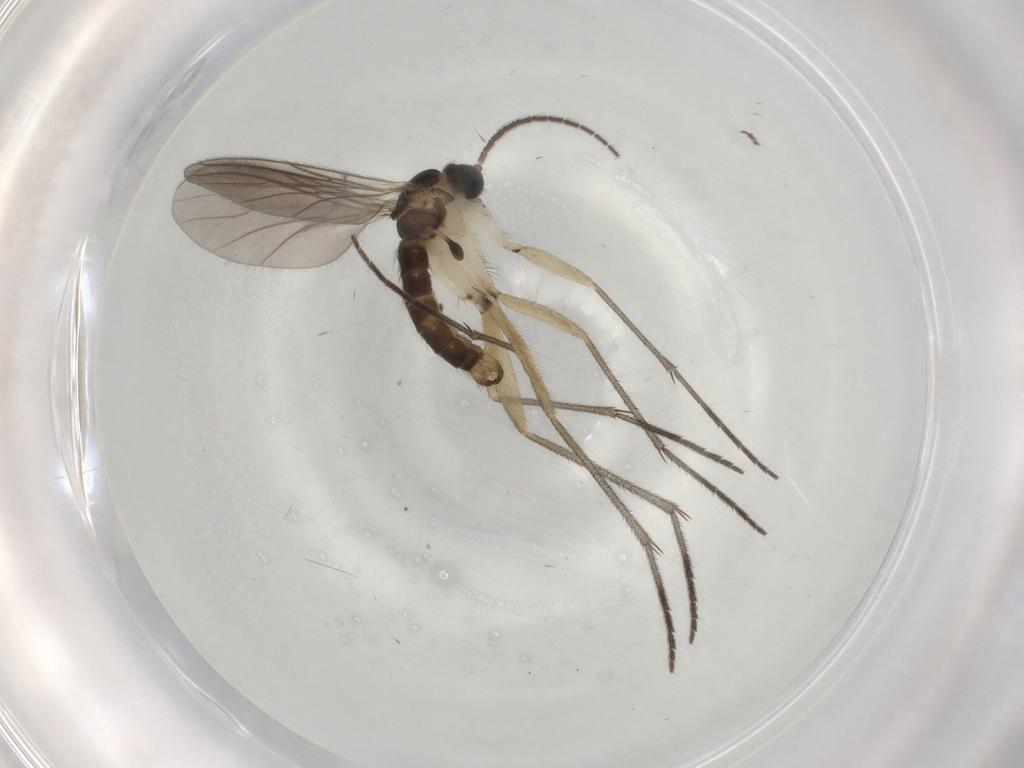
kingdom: Animalia
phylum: Arthropoda
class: Insecta
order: Diptera
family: Sciaridae
